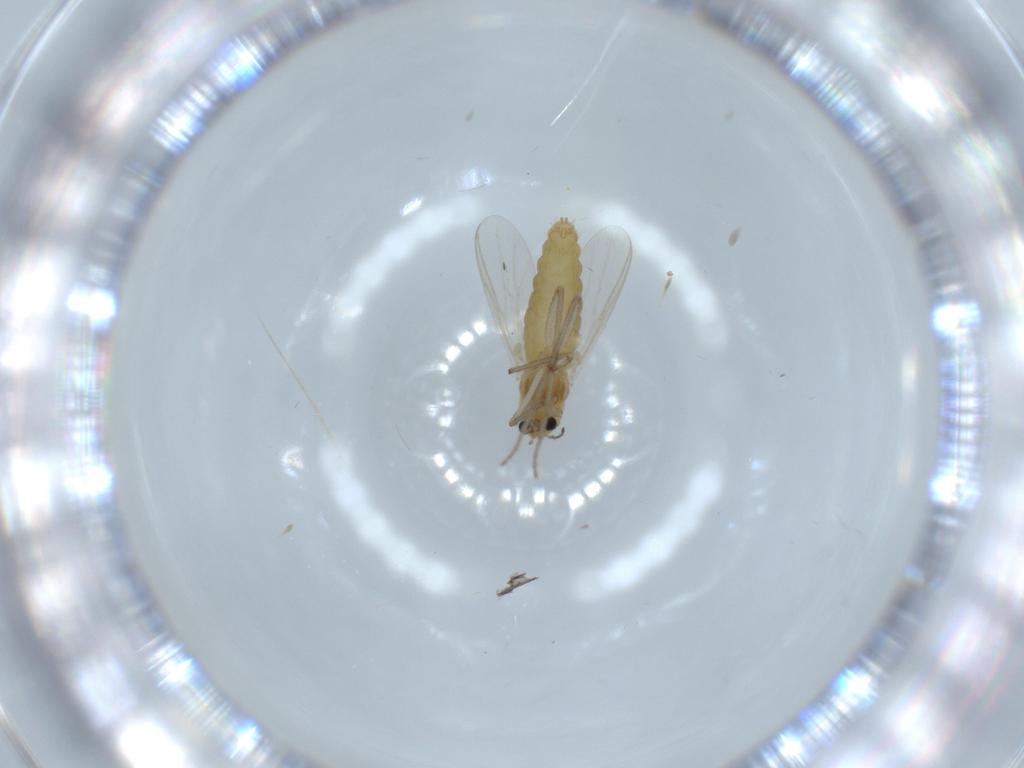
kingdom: Animalia
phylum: Arthropoda
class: Insecta
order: Diptera
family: Chironomidae
